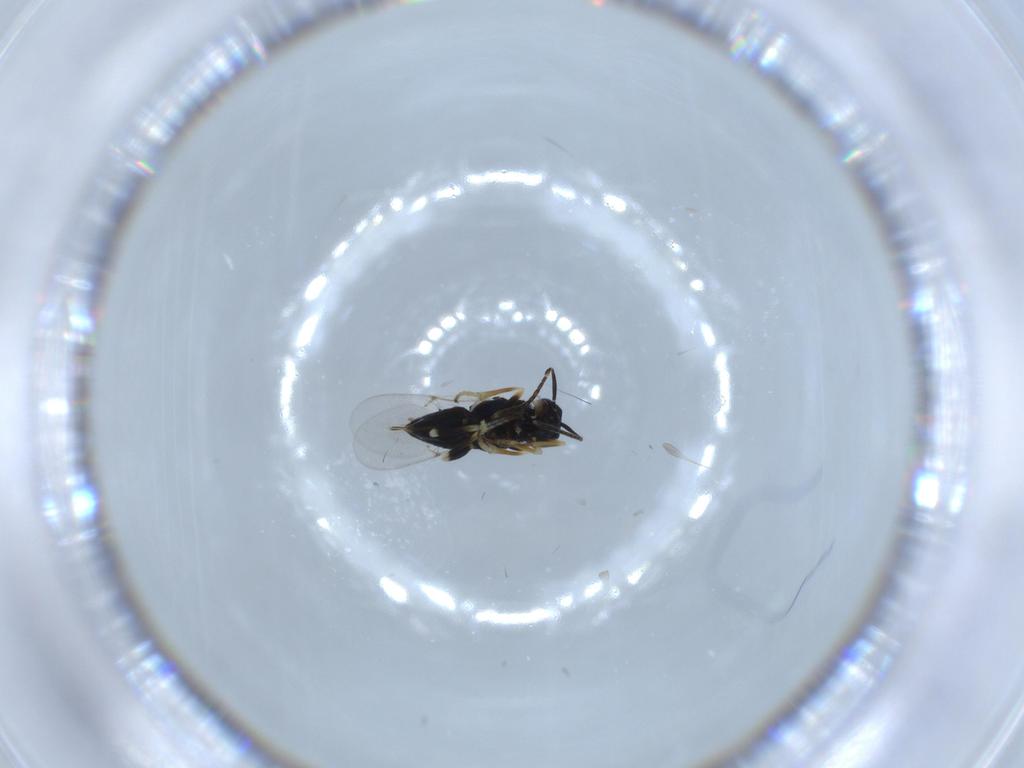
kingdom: Animalia
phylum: Arthropoda
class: Insecta
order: Hymenoptera
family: Encyrtidae
